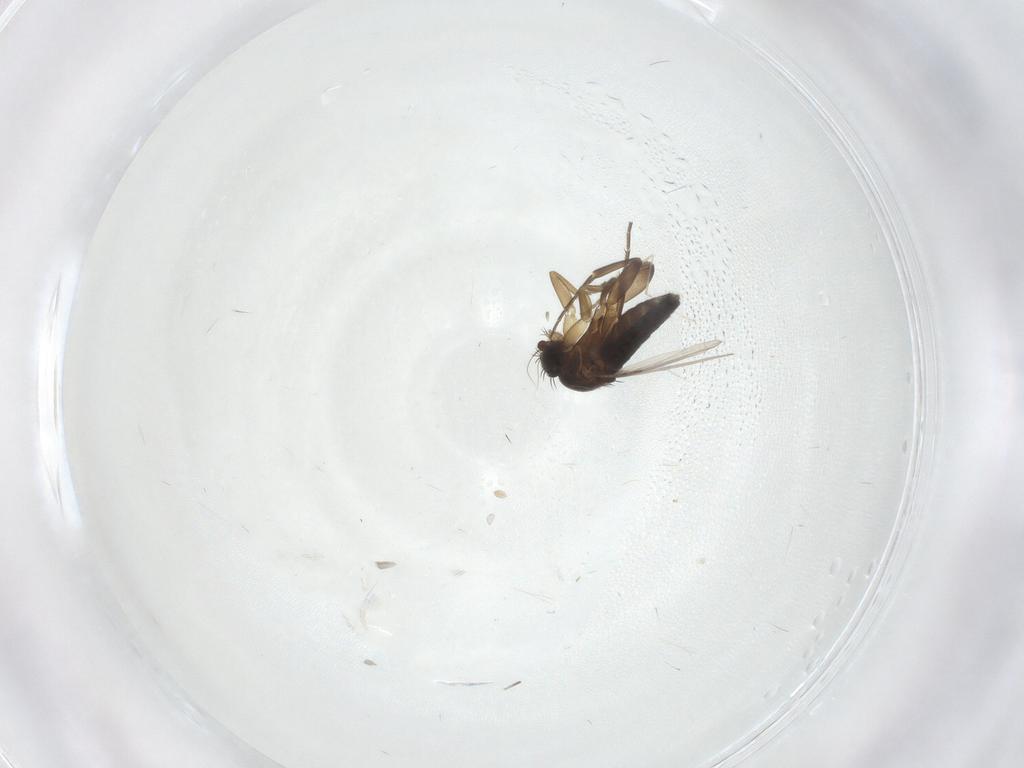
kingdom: Animalia
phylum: Arthropoda
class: Insecta
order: Diptera
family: Phoridae
